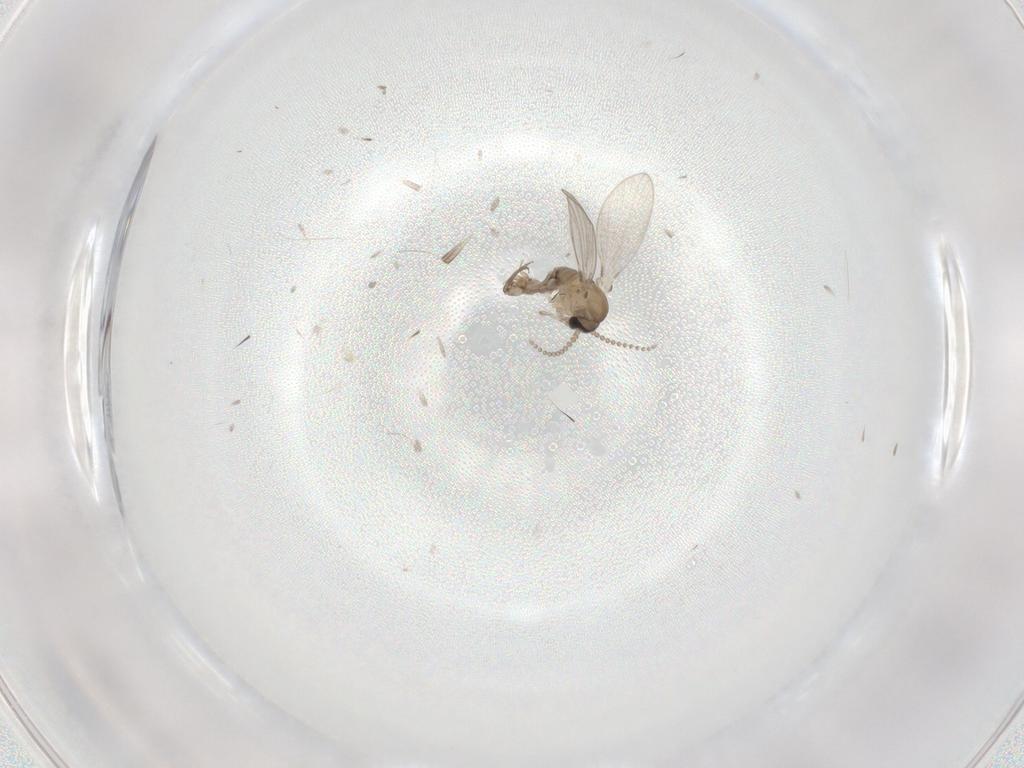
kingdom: Animalia
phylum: Arthropoda
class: Insecta
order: Diptera
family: Psychodidae
